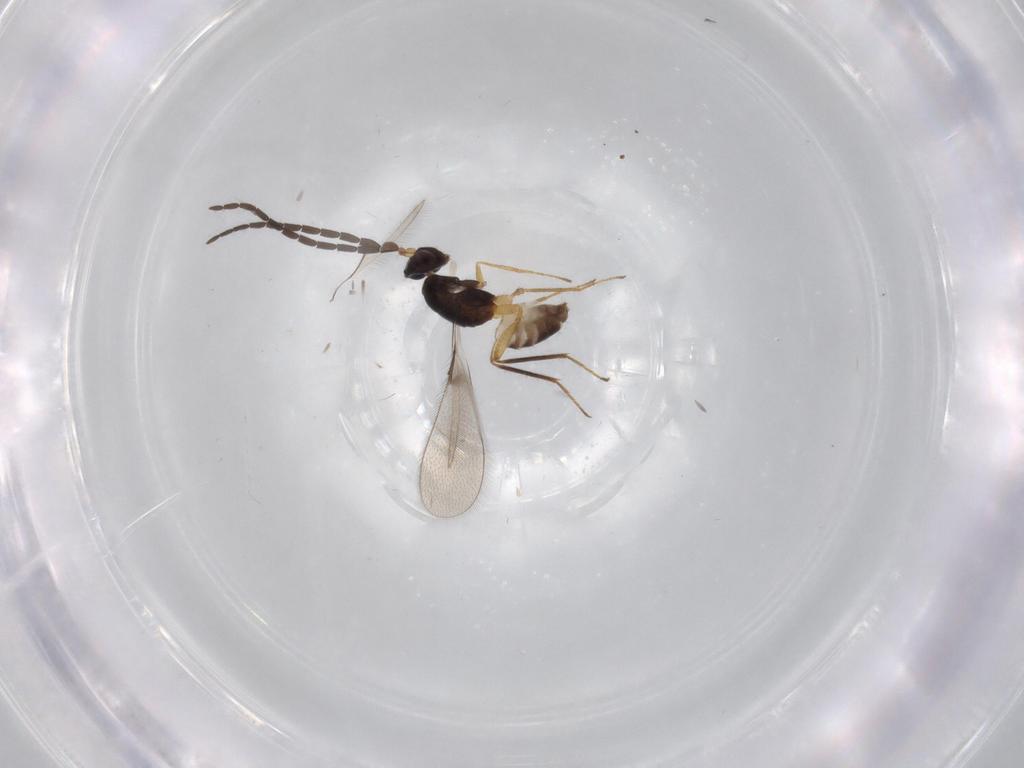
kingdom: Animalia
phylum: Arthropoda
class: Insecta
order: Hymenoptera
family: Mymaridae
